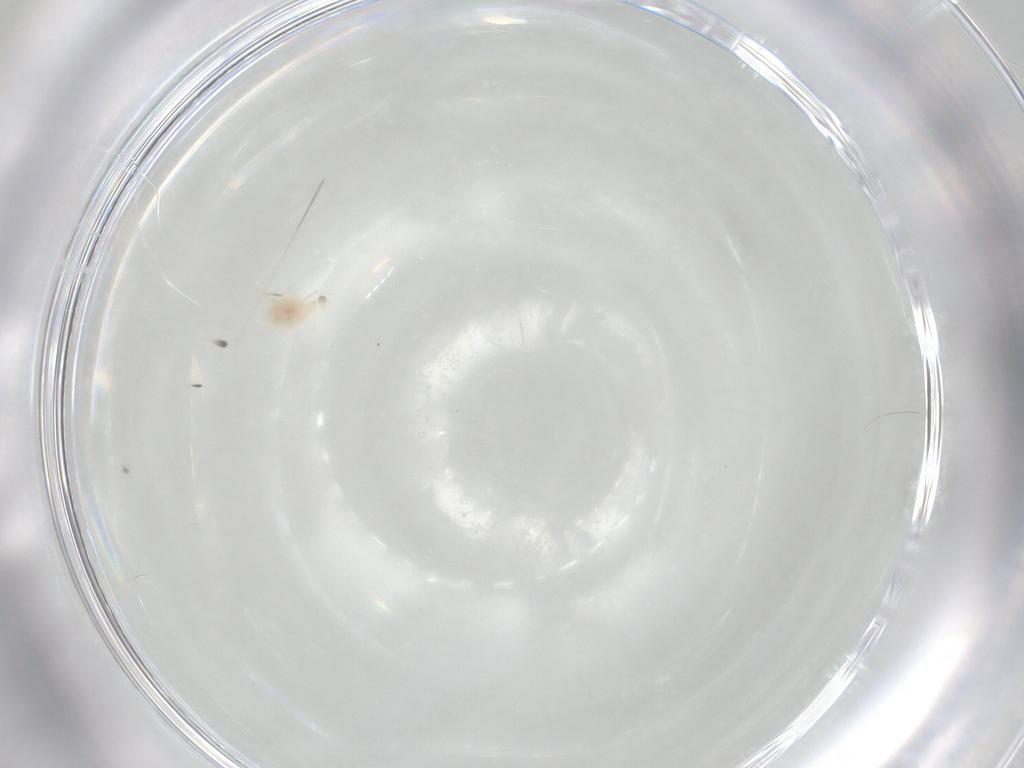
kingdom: Animalia
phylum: Arthropoda
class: Arachnida
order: Trombidiformes
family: Cunaxidae
